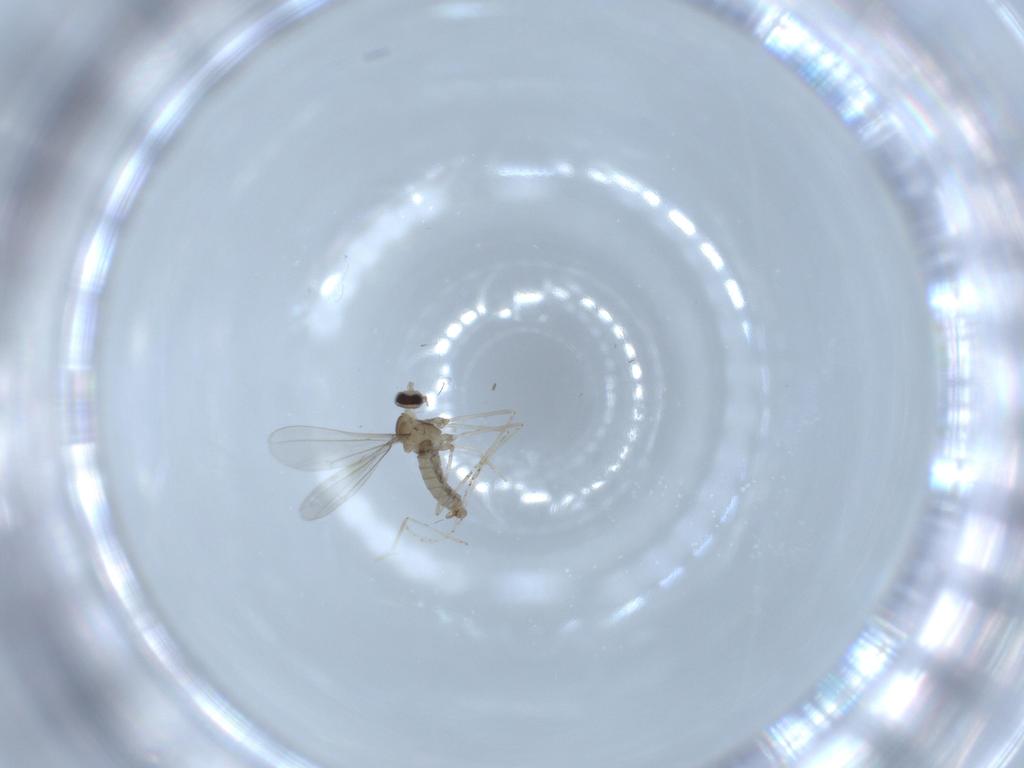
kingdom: Animalia
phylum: Arthropoda
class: Insecta
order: Diptera
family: Cecidomyiidae
